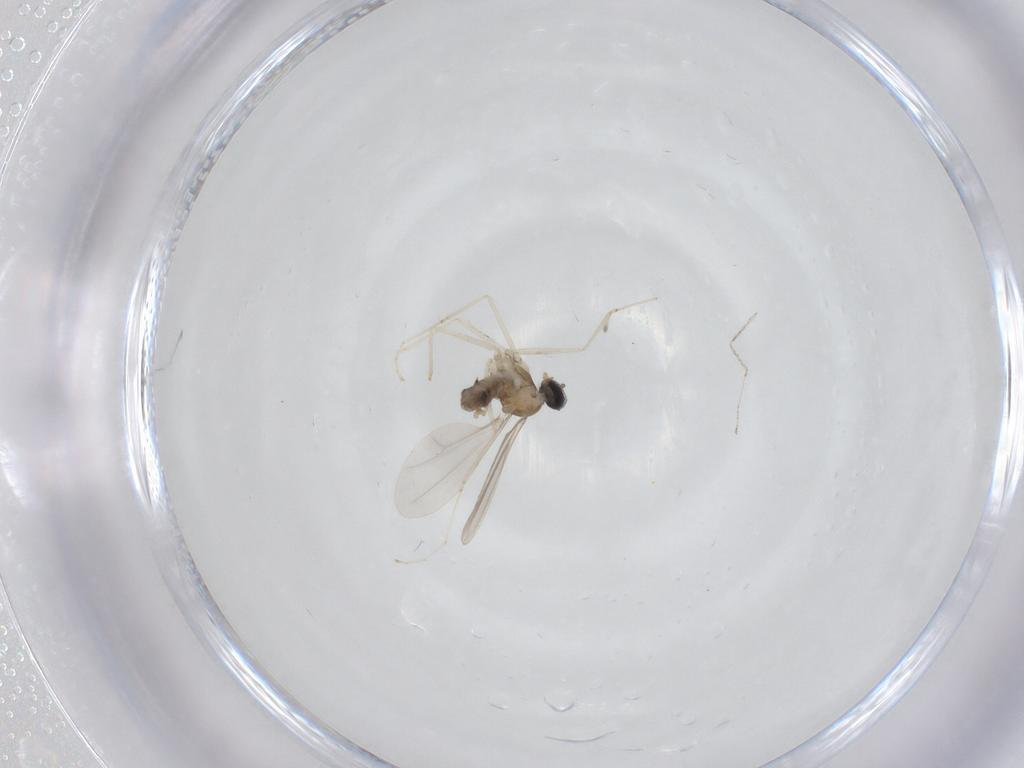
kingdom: Animalia
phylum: Arthropoda
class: Insecta
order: Diptera
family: Cecidomyiidae
